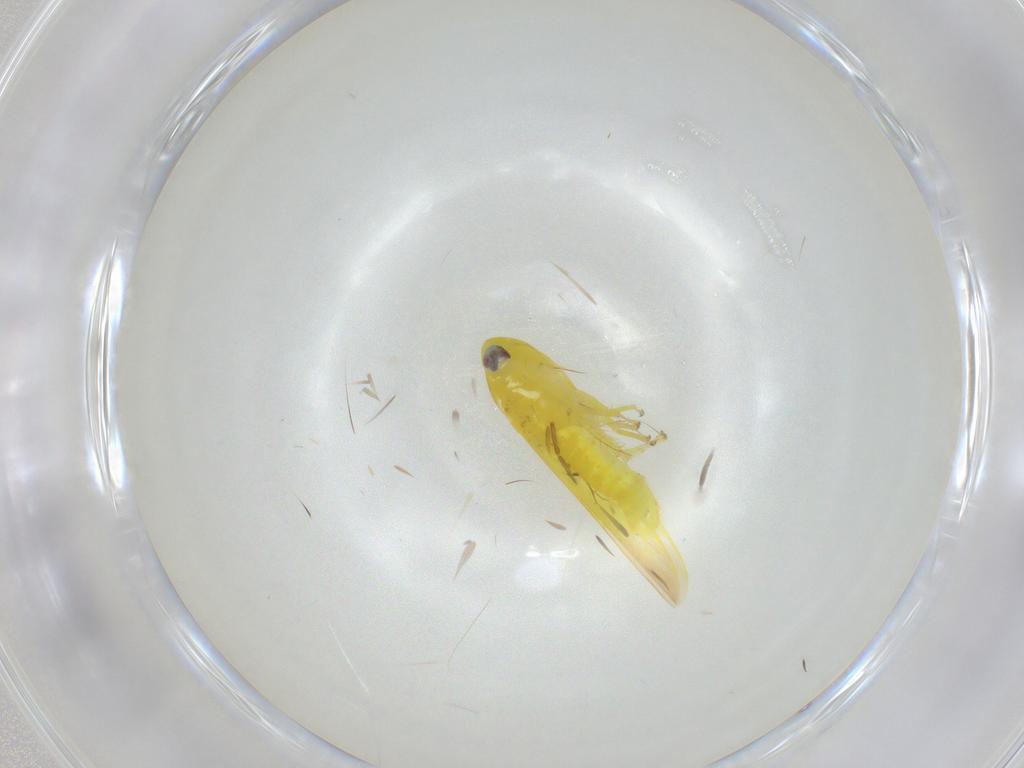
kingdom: Animalia
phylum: Arthropoda
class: Insecta
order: Hemiptera
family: Cicadellidae
